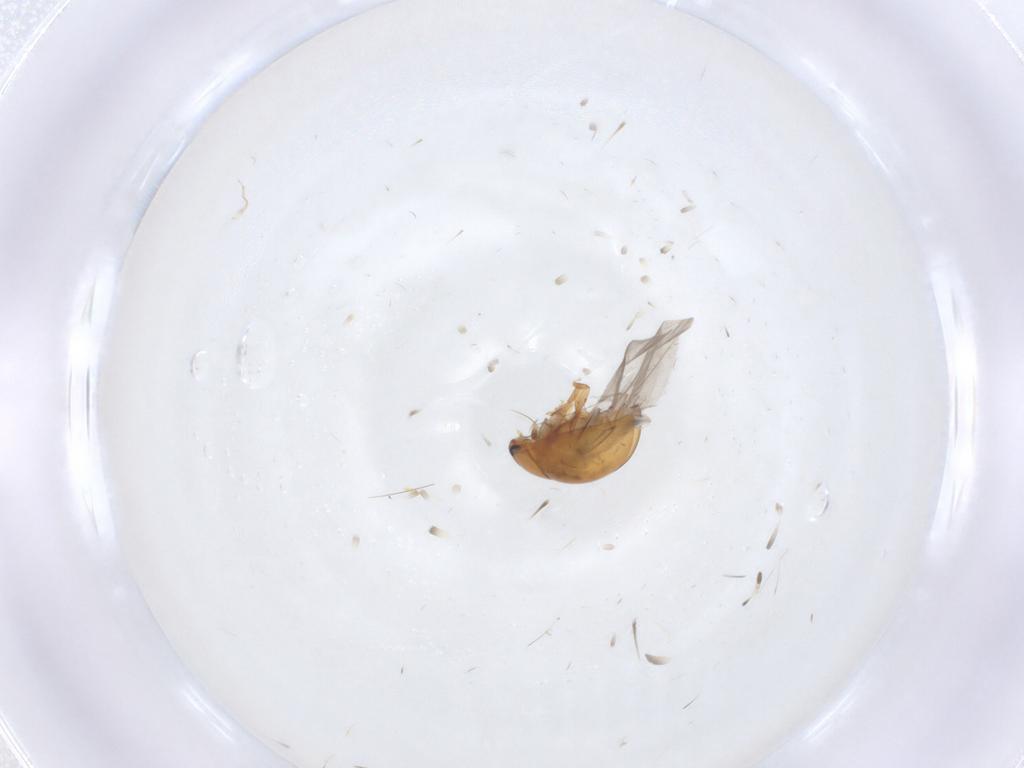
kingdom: Animalia
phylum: Arthropoda
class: Insecta
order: Coleoptera
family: Phalacridae
